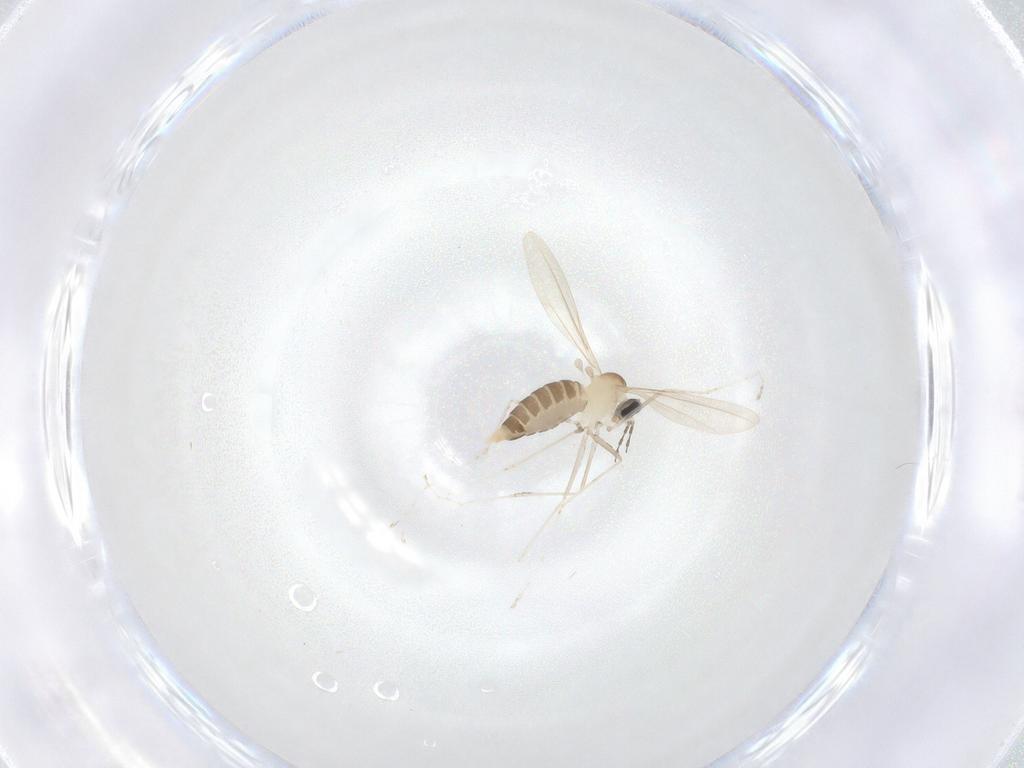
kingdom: Animalia
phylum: Arthropoda
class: Insecta
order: Diptera
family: Cecidomyiidae
